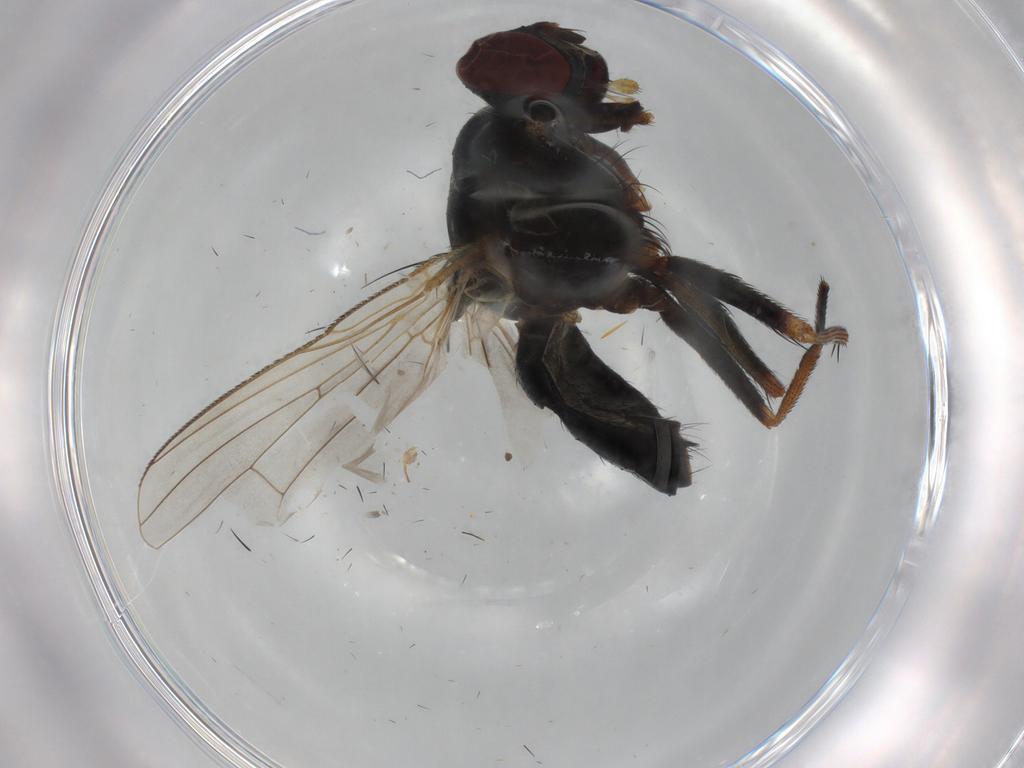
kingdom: Animalia
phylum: Arthropoda
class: Insecta
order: Diptera
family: Muscidae
